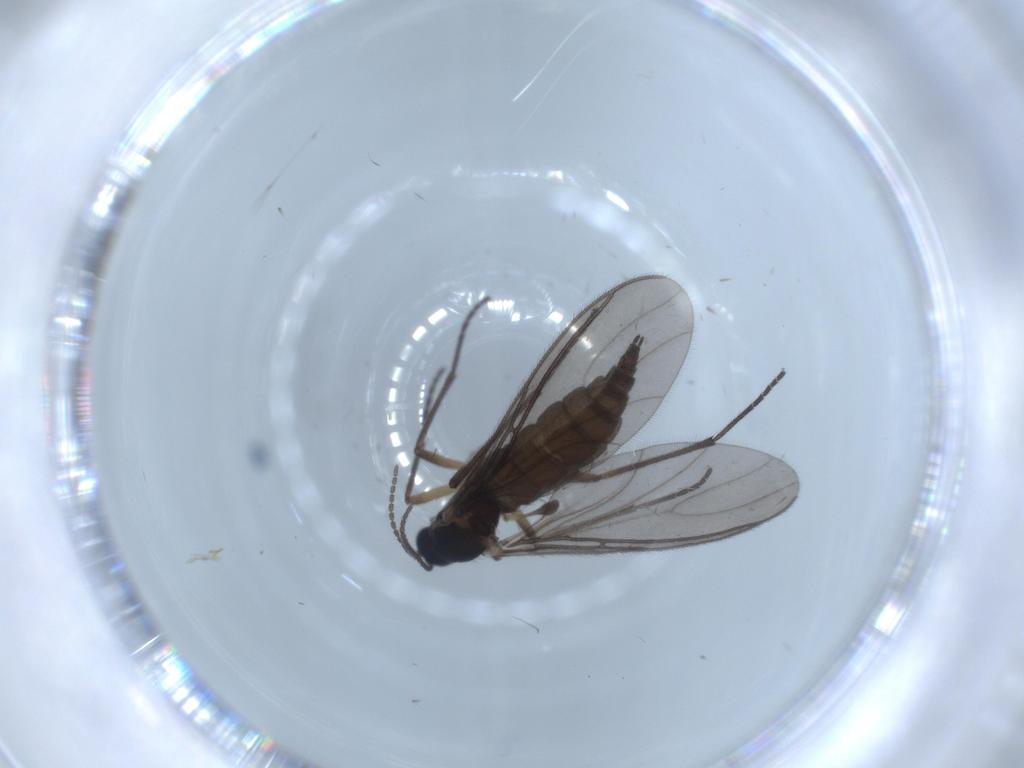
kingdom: Animalia
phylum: Arthropoda
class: Insecta
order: Diptera
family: Sciaridae
